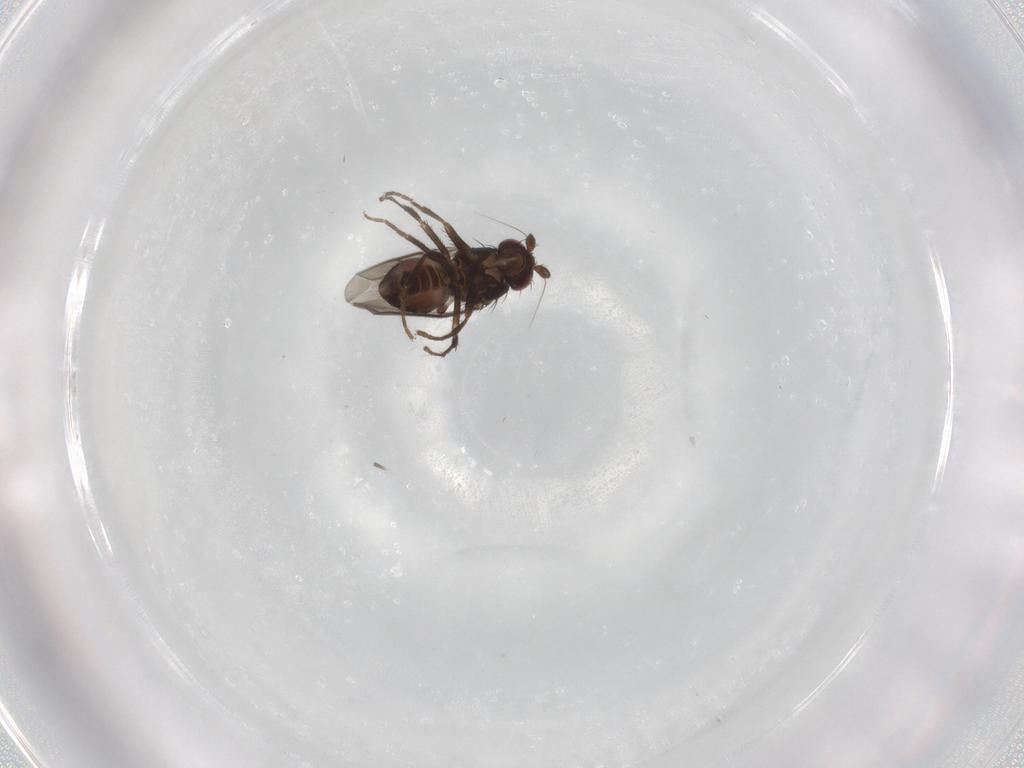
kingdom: Animalia
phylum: Arthropoda
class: Insecta
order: Diptera
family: Sphaeroceridae
